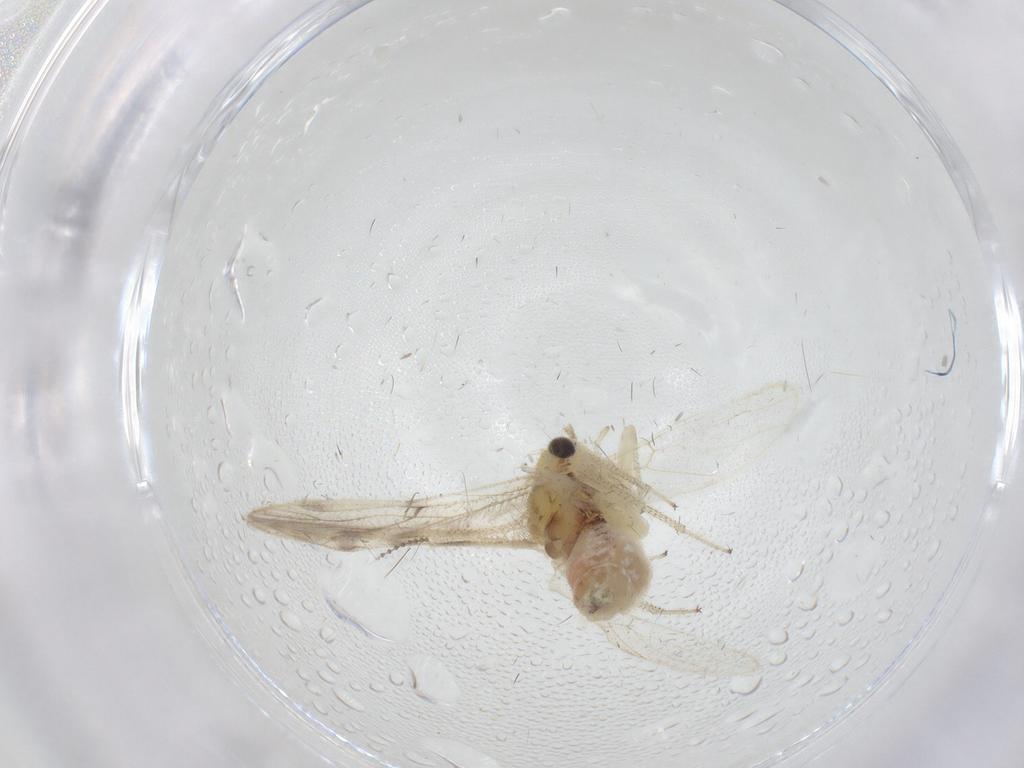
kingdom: Animalia
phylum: Arthropoda
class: Insecta
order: Psocodea
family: Pseudocaeciliidae
